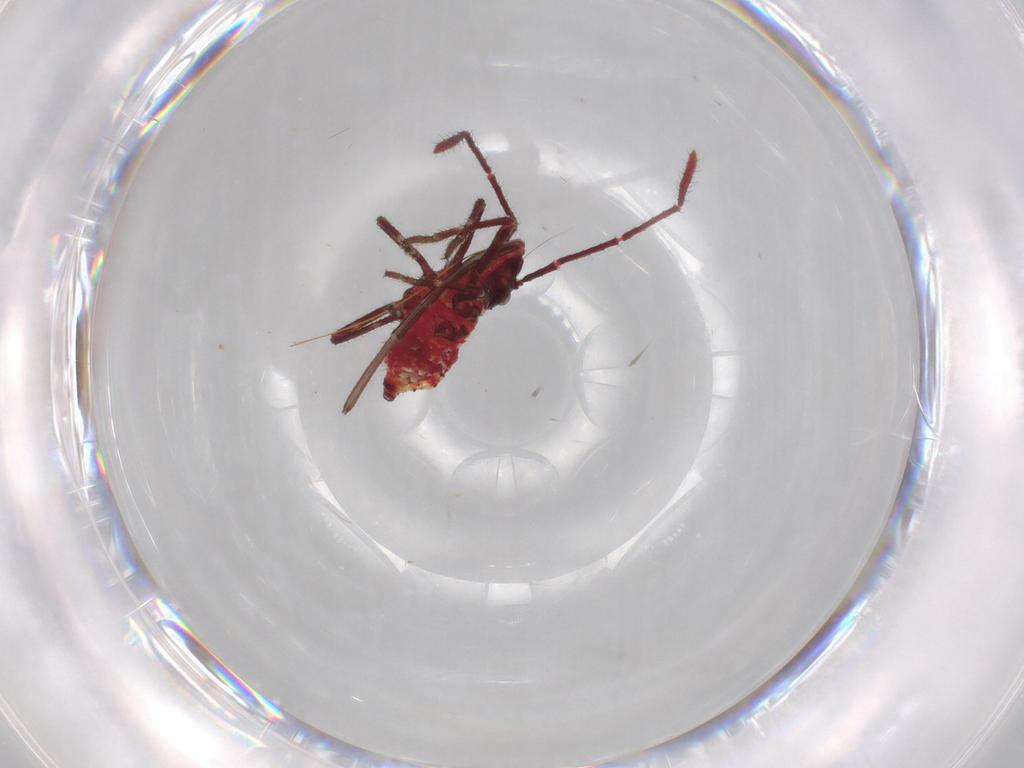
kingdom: Animalia
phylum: Arthropoda
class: Insecta
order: Hemiptera
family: Coreidae
